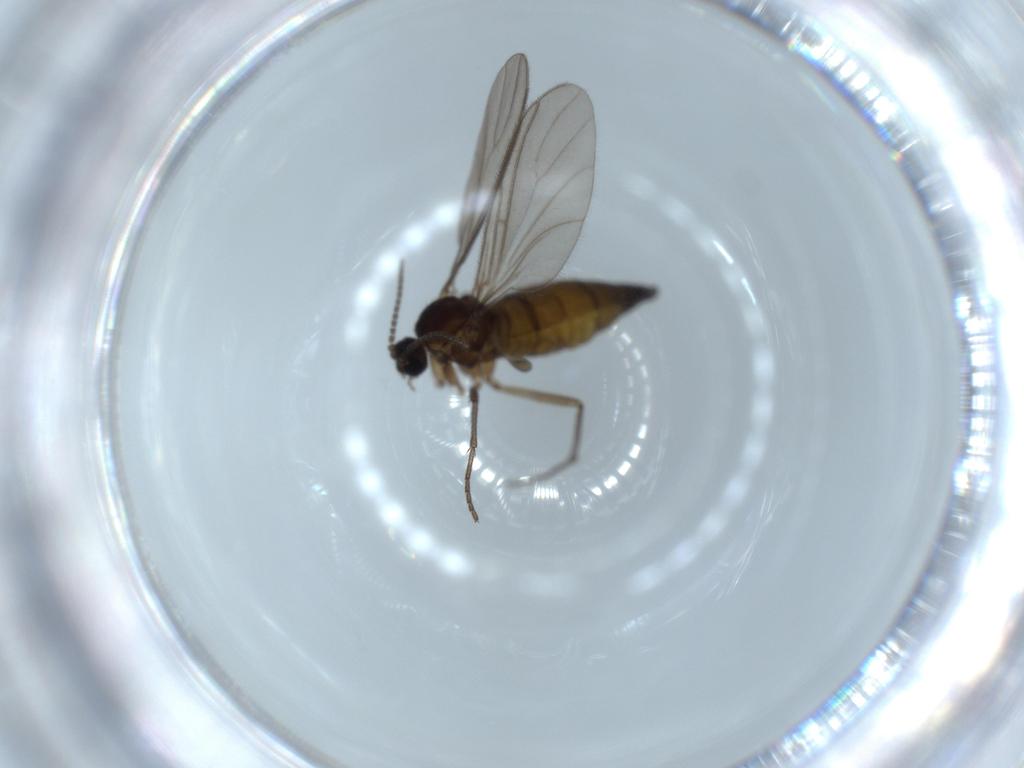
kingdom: Animalia
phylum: Arthropoda
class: Insecta
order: Diptera
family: Sciaridae
